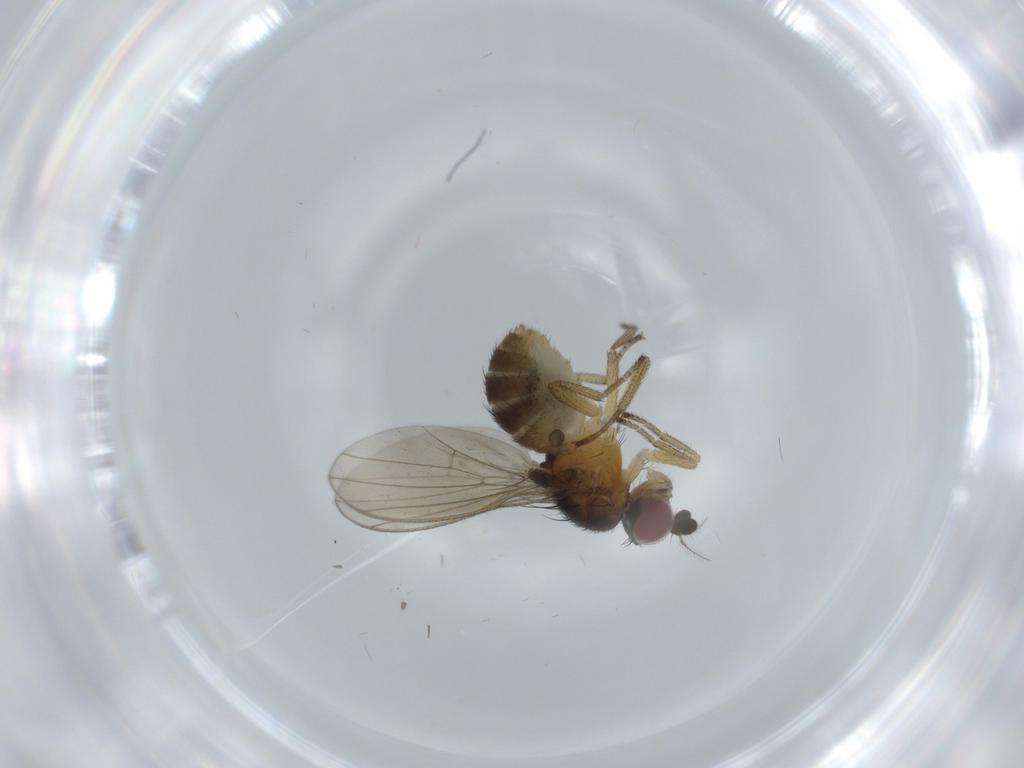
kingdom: Animalia
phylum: Arthropoda
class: Insecta
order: Diptera
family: Lauxaniidae
